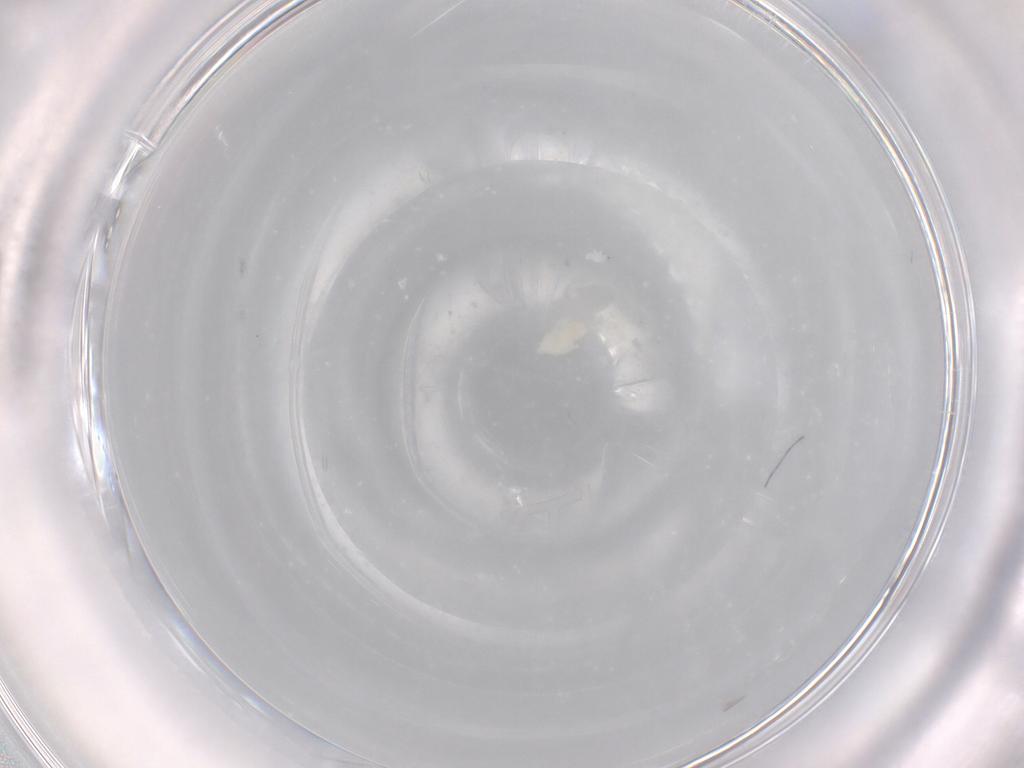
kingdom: Animalia
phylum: Arthropoda
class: Arachnida
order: Trombidiformes
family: Eupodidae
